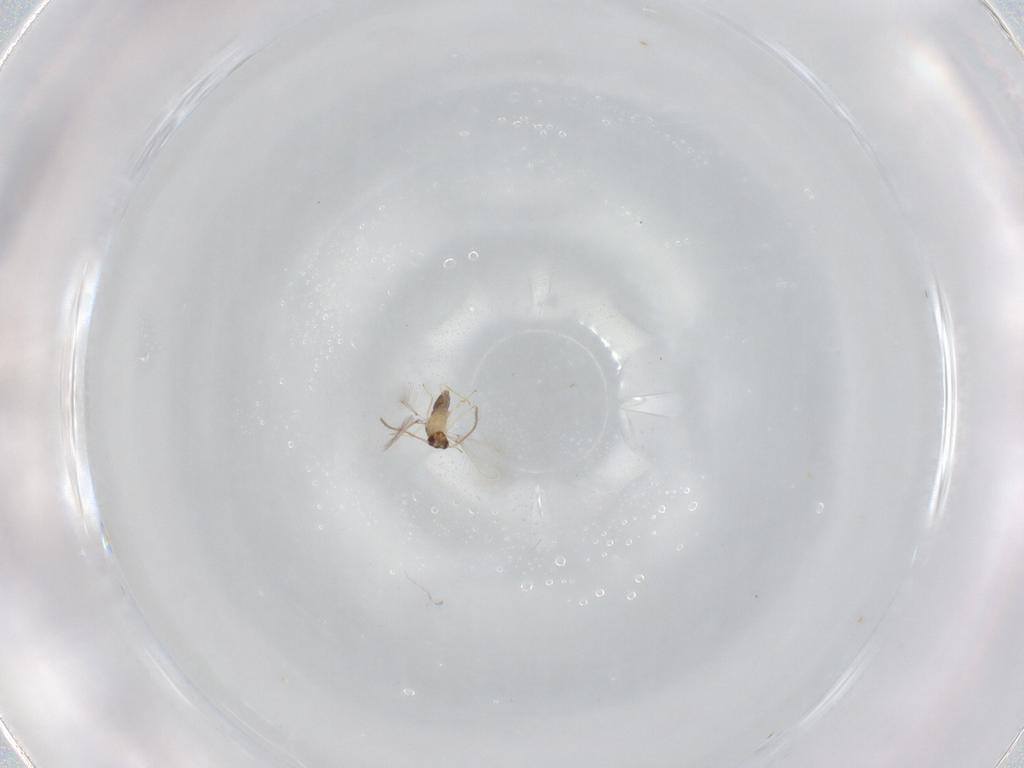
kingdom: Animalia
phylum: Arthropoda
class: Insecta
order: Hymenoptera
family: Mymaridae
